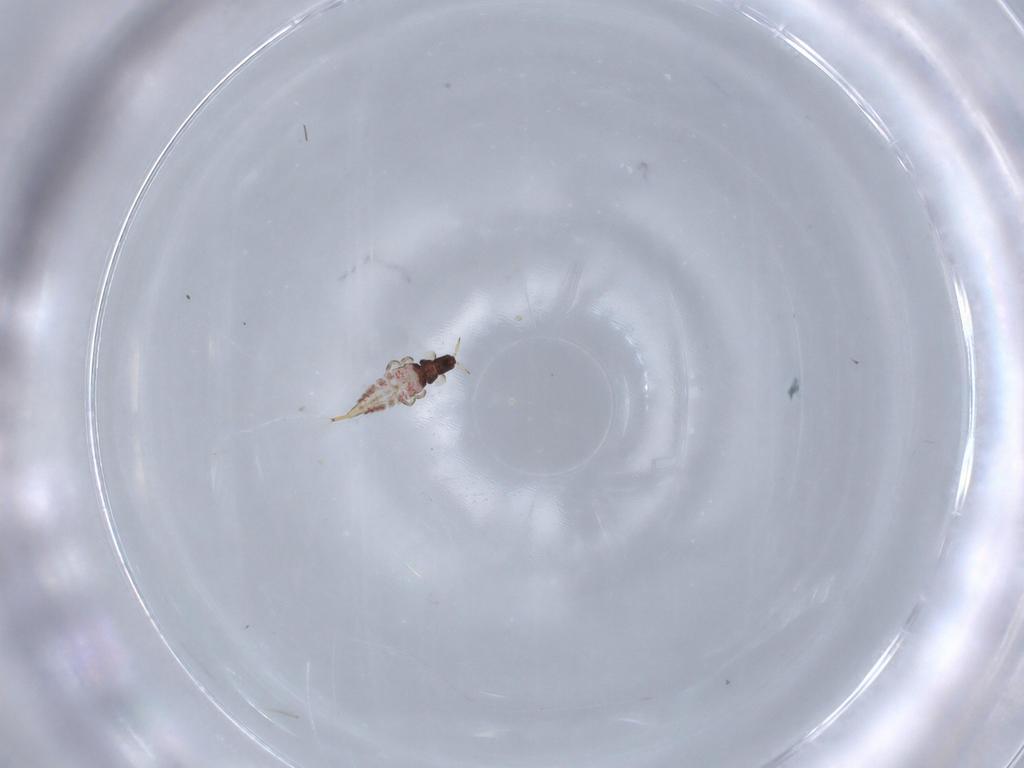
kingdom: Animalia
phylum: Arthropoda
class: Insecta
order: Thysanoptera
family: Phlaeothripidae
